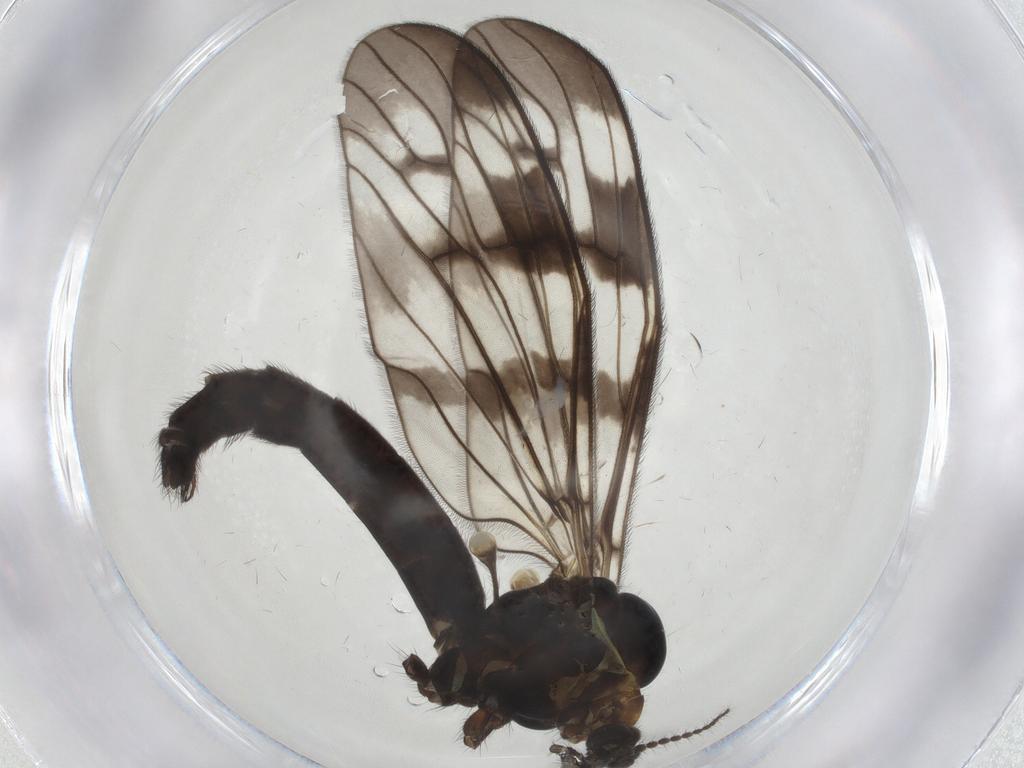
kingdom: Animalia
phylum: Arthropoda
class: Insecta
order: Diptera
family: Limoniidae
